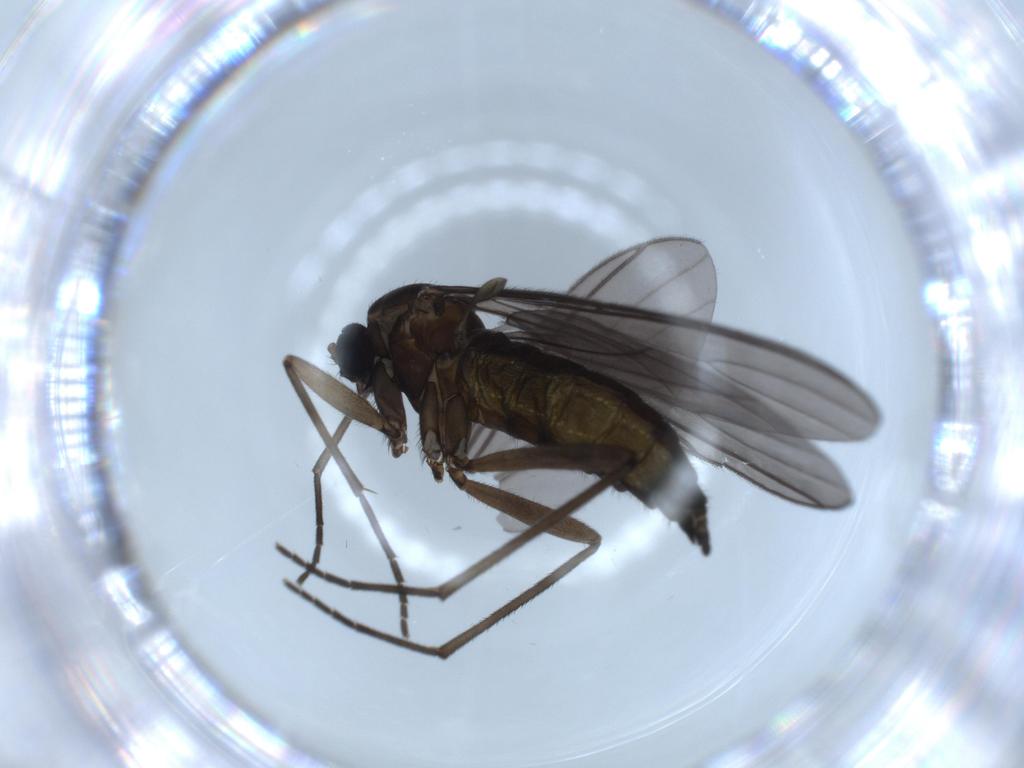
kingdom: Animalia
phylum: Arthropoda
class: Insecta
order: Diptera
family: Sciaridae
